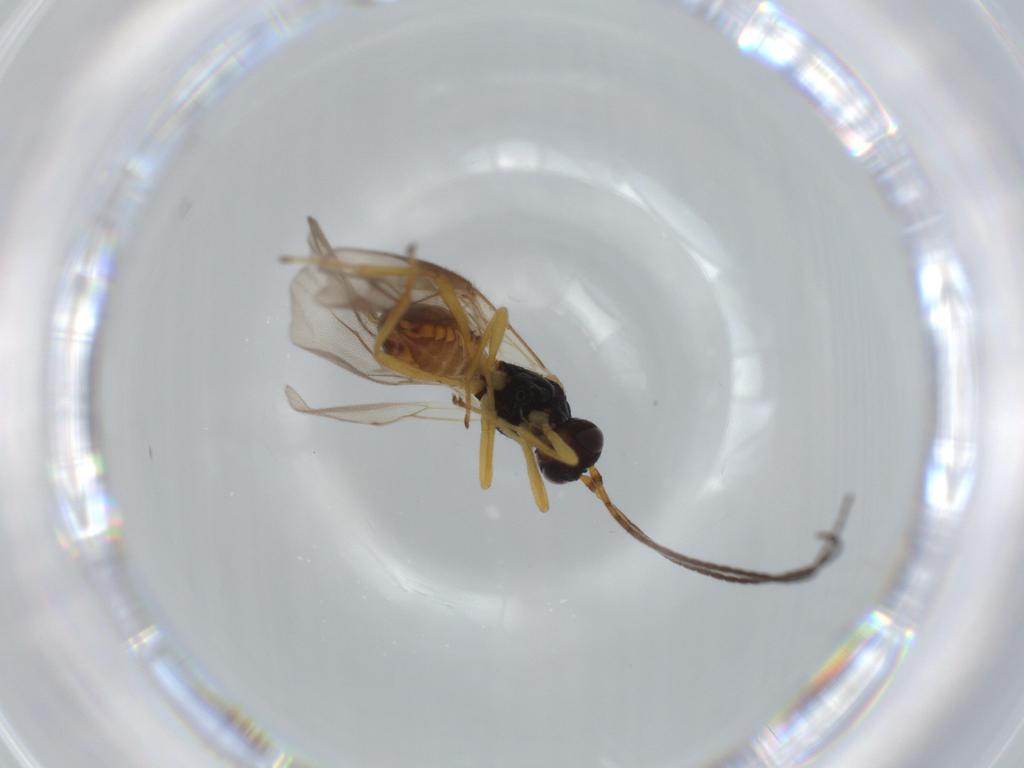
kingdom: Animalia
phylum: Arthropoda
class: Insecta
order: Hymenoptera
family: Braconidae
